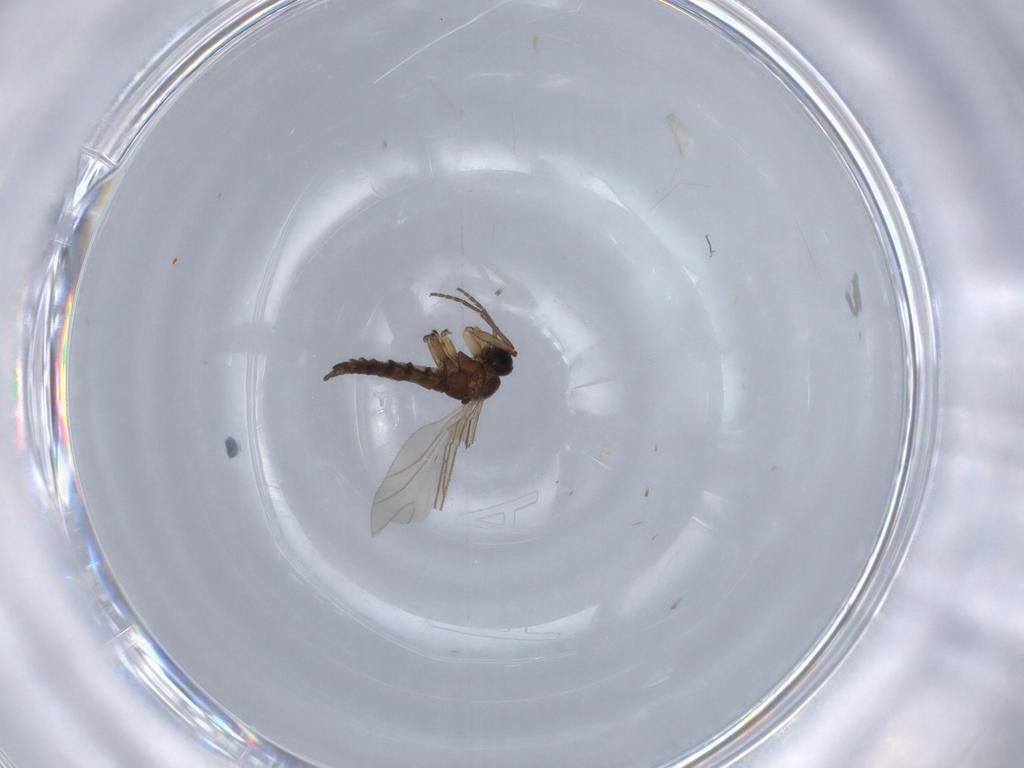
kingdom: Animalia
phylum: Arthropoda
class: Insecta
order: Diptera
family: Sciaridae
